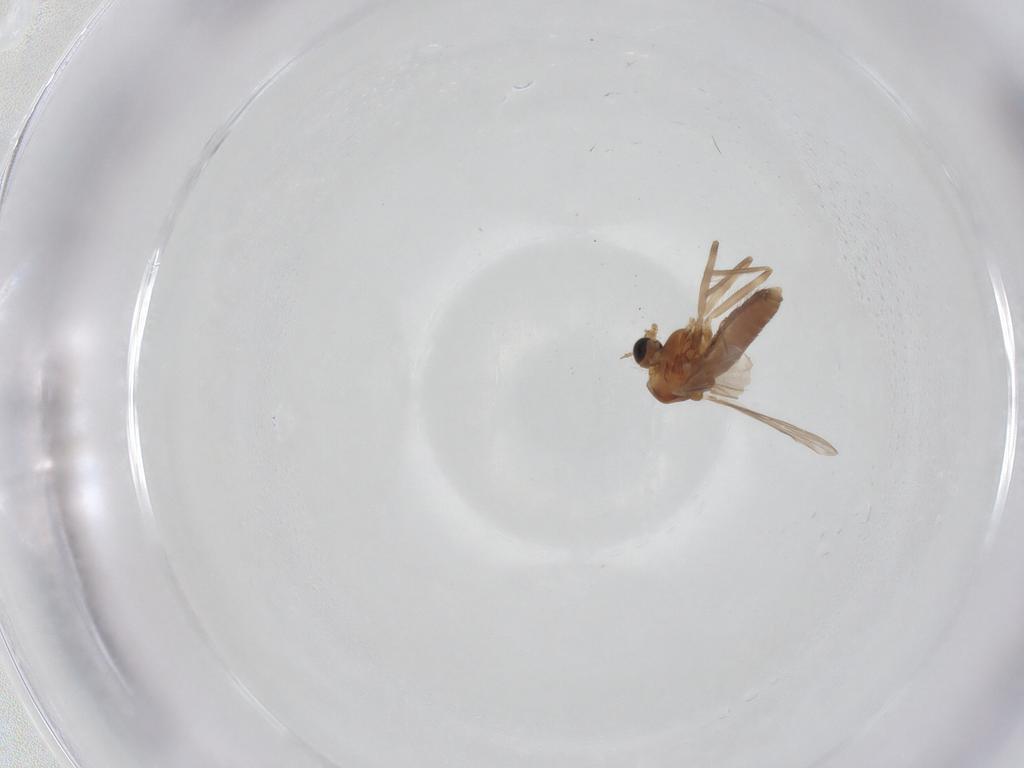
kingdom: Animalia
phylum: Arthropoda
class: Insecta
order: Diptera
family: Chironomidae
